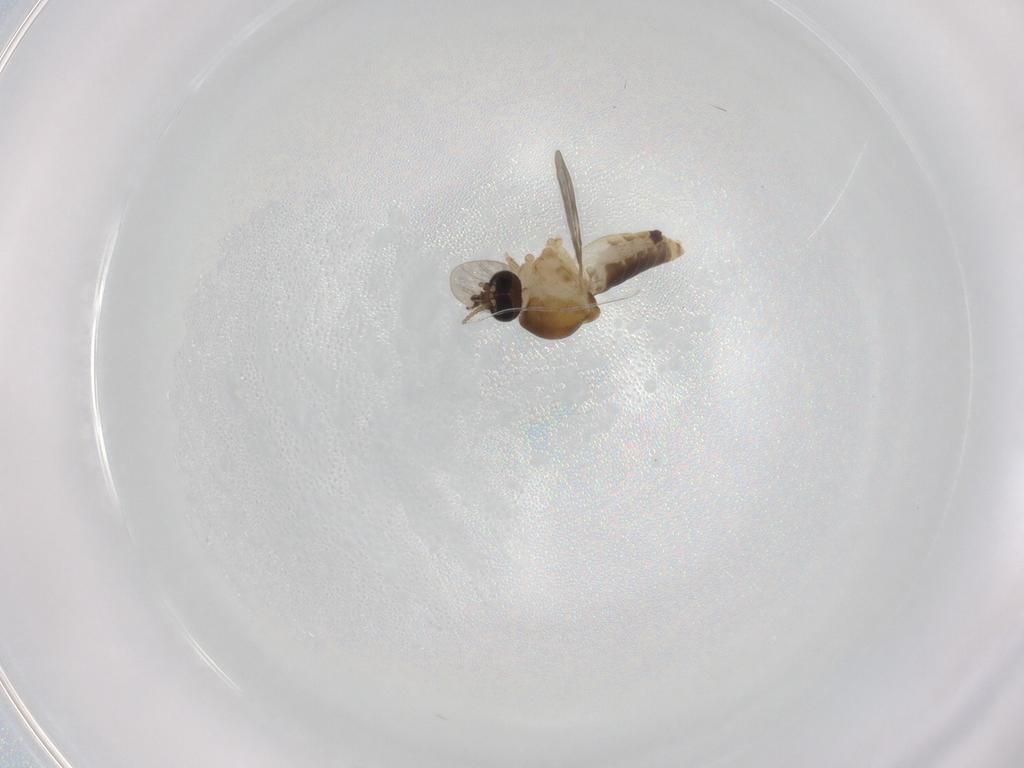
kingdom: Animalia
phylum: Arthropoda
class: Insecta
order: Diptera
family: Ceratopogonidae
